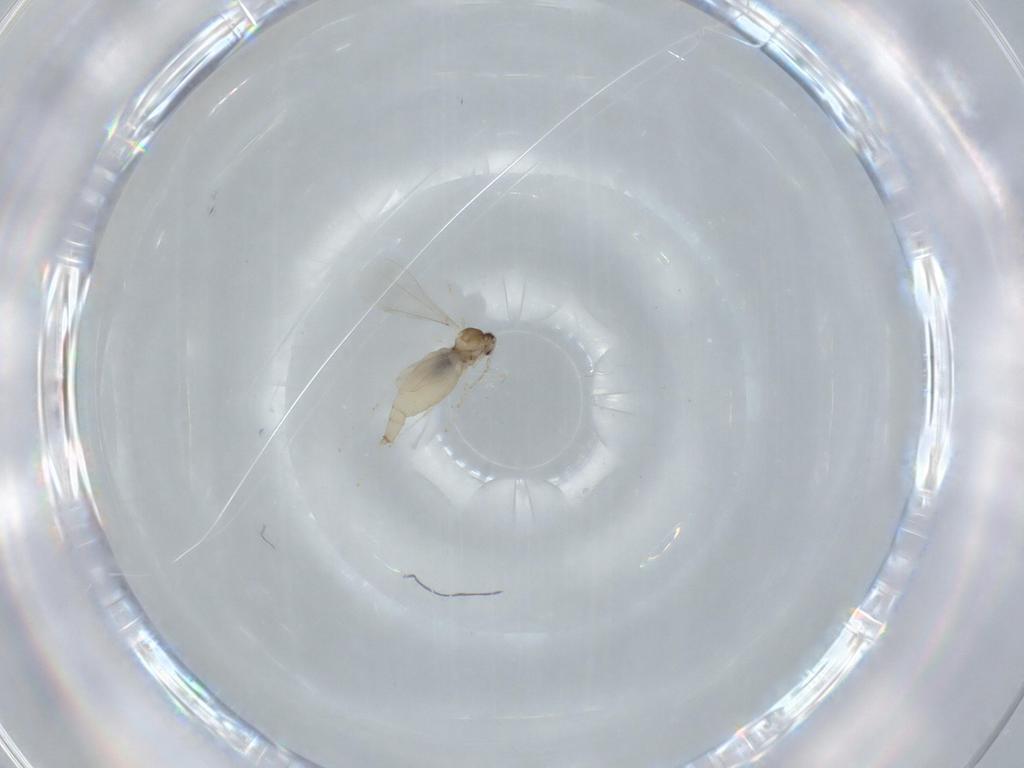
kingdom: Animalia
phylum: Arthropoda
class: Insecta
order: Diptera
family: Cecidomyiidae
